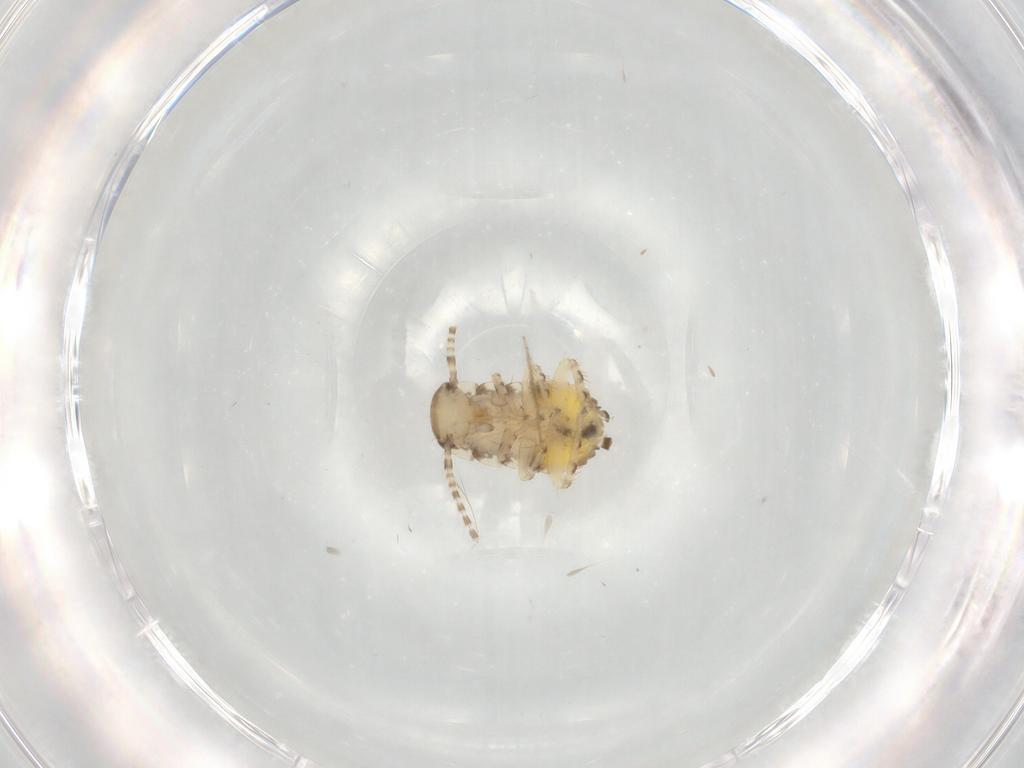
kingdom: Animalia
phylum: Arthropoda
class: Insecta
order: Blattodea
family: Ectobiidae
